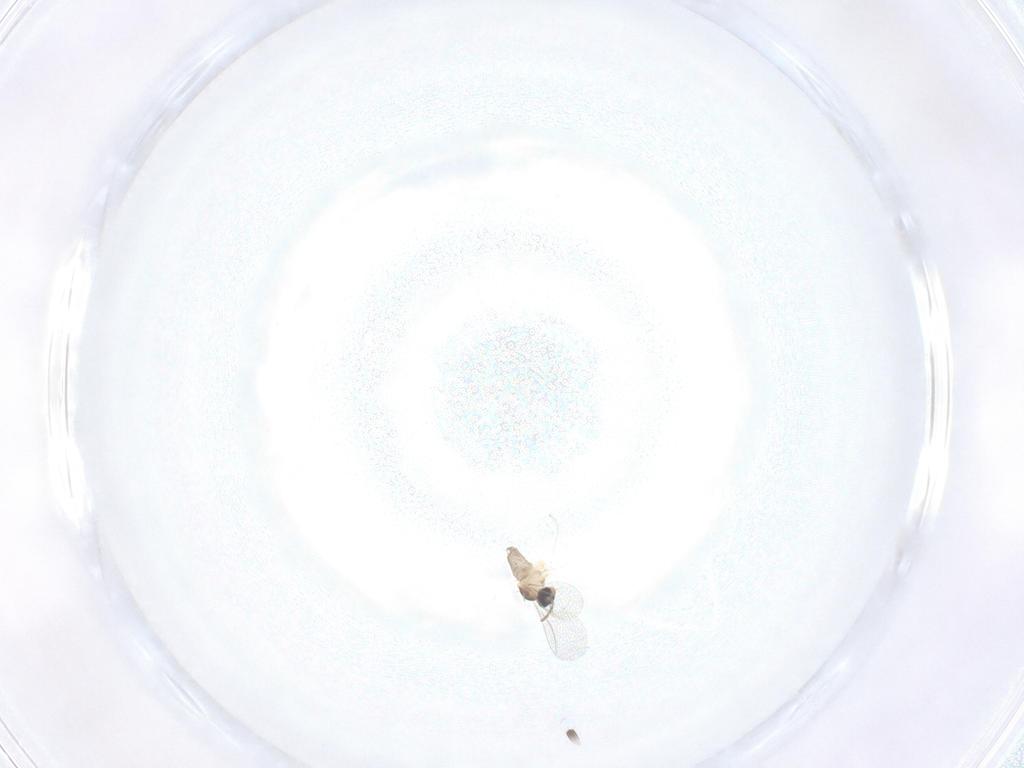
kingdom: Animalia
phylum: Arthropoda
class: Insecta
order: Diptera
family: Cecidomyiidae
